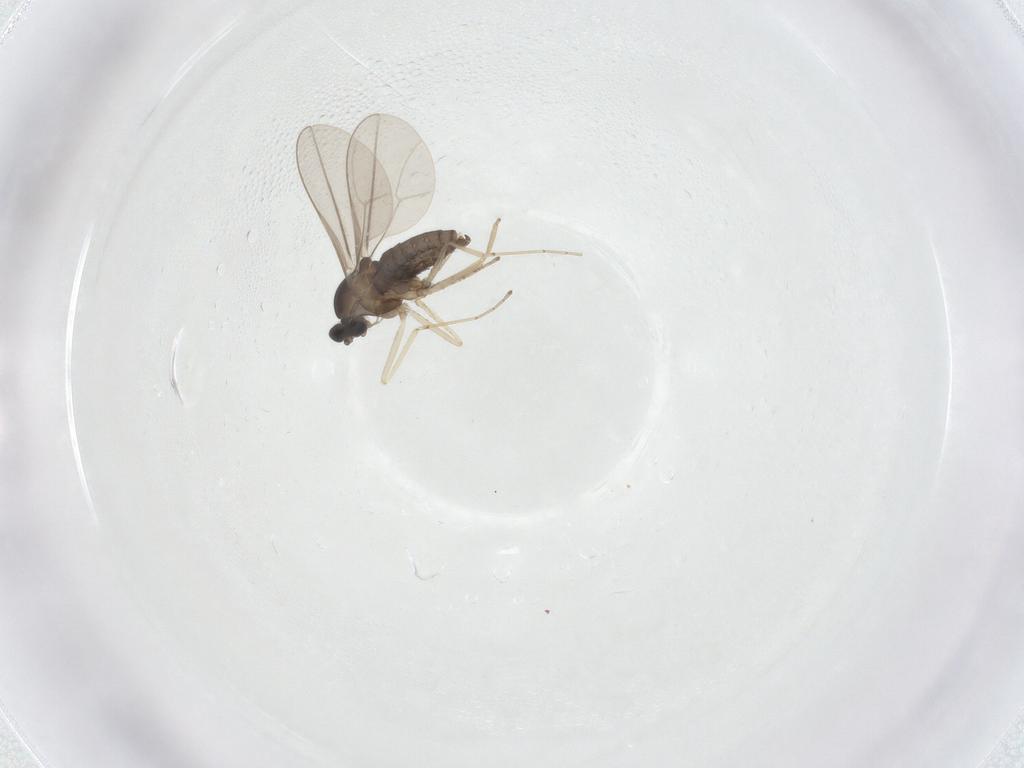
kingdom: Animalia
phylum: Arthropoda
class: Insecta
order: Diptera
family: Cecidomyiidae
